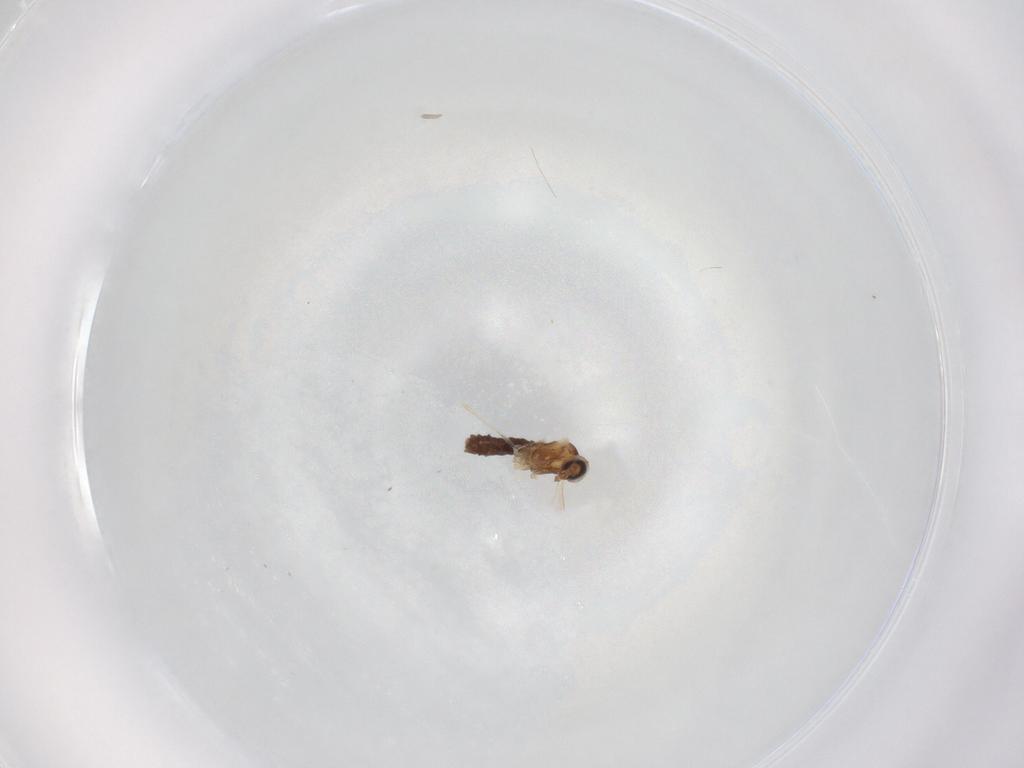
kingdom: Animalia
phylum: Arthropoda
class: Insecta
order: Diptera
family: Cecidomyiidae
